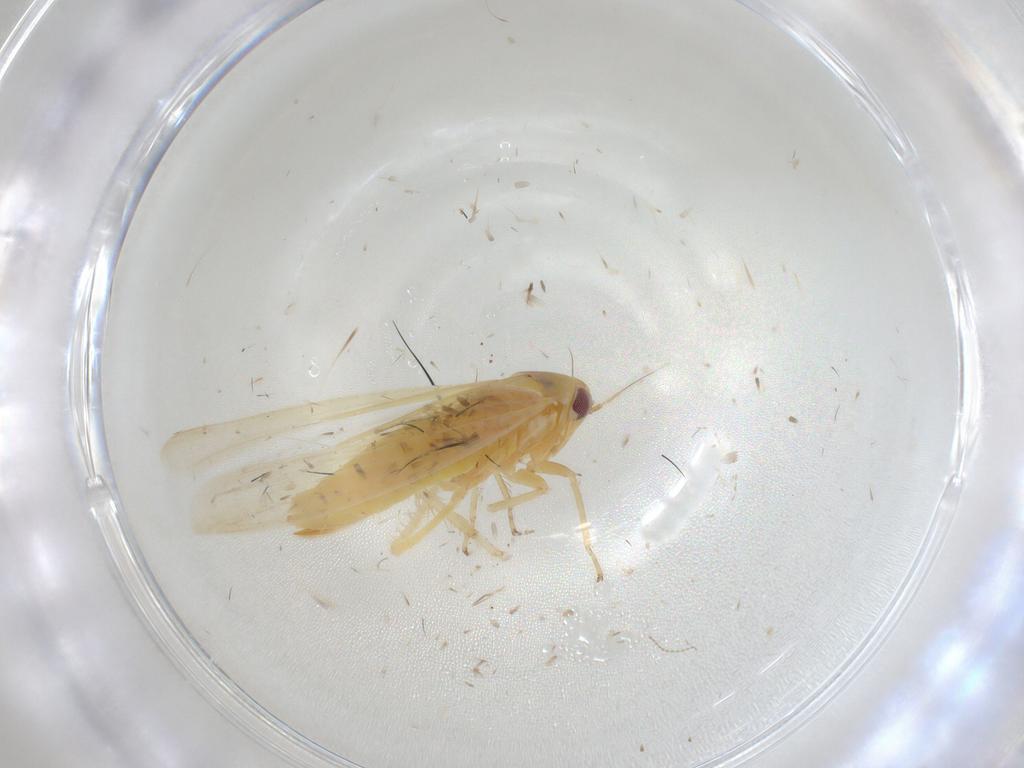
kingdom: Animalia
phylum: Arthropoda
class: Insecta
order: Hemiptera
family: Cicadellidae
